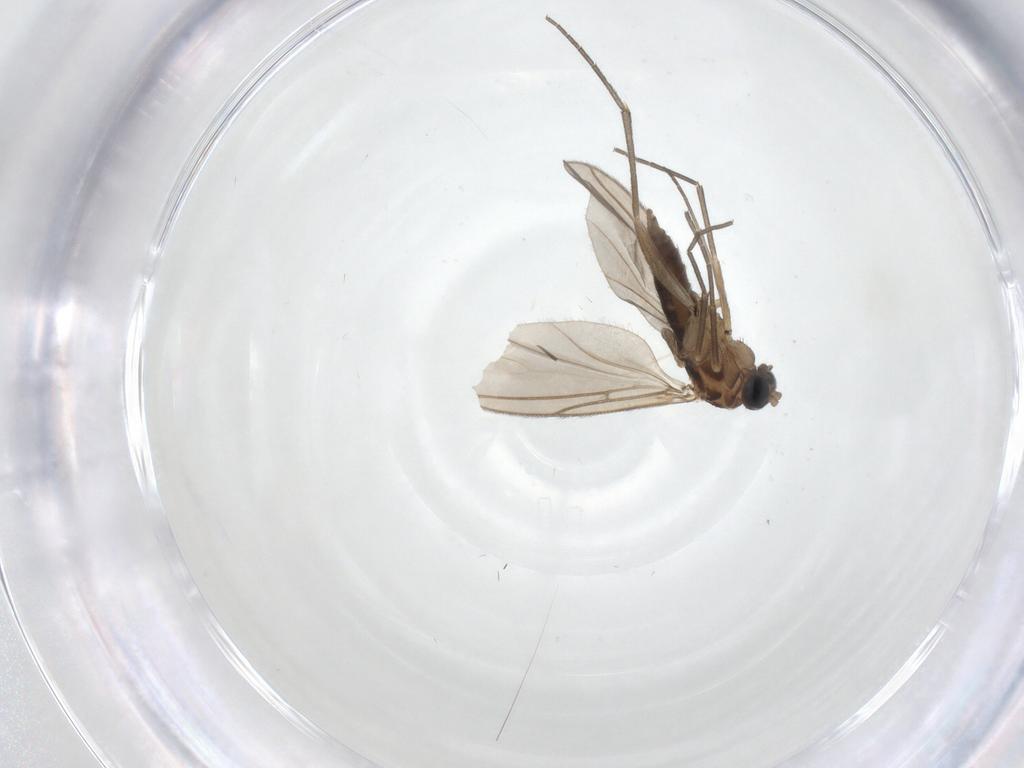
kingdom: Animalia
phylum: Arthropoda
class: Insecta
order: Diptera
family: Cecidomyiidae
